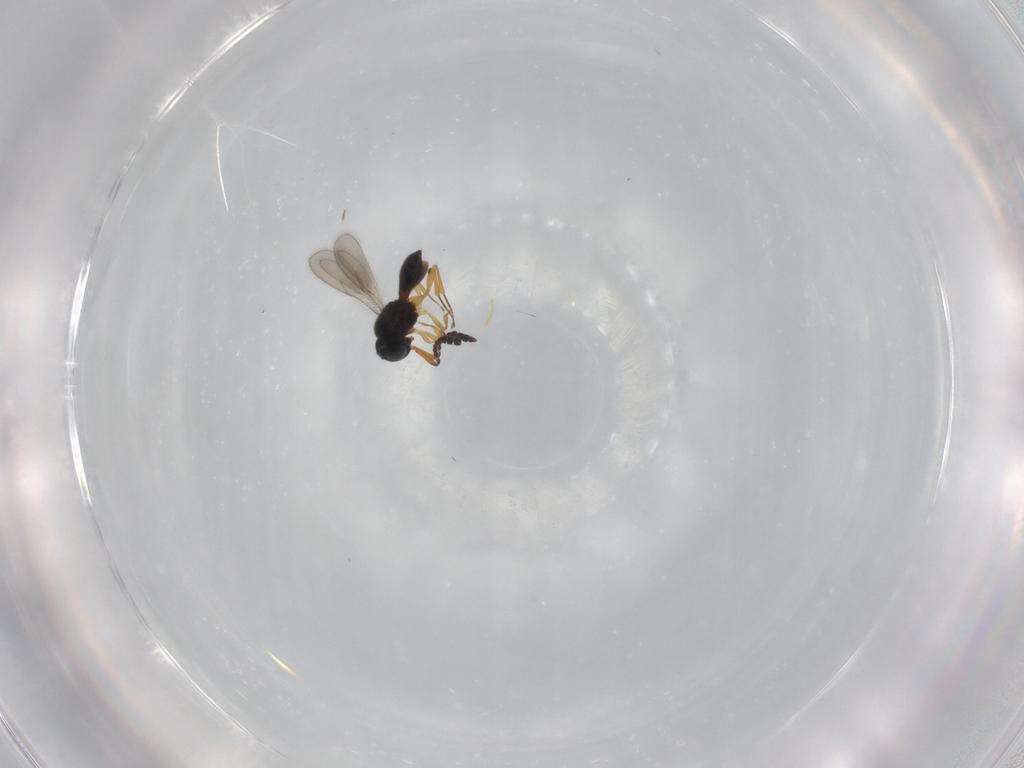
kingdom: Animalia
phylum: Arthropoda
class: Insecta
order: Hymenoptera
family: Scelionidae
